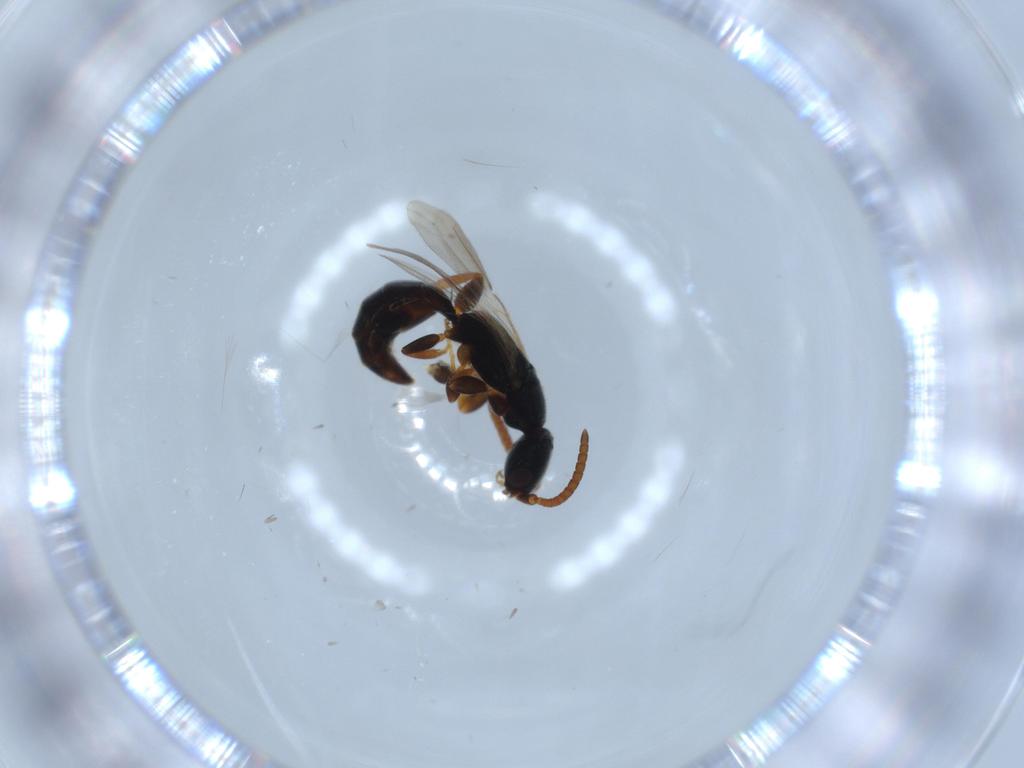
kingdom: Animalia
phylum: Arthropoda
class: Insecta
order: Hymenoptera
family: Aphelinidae
